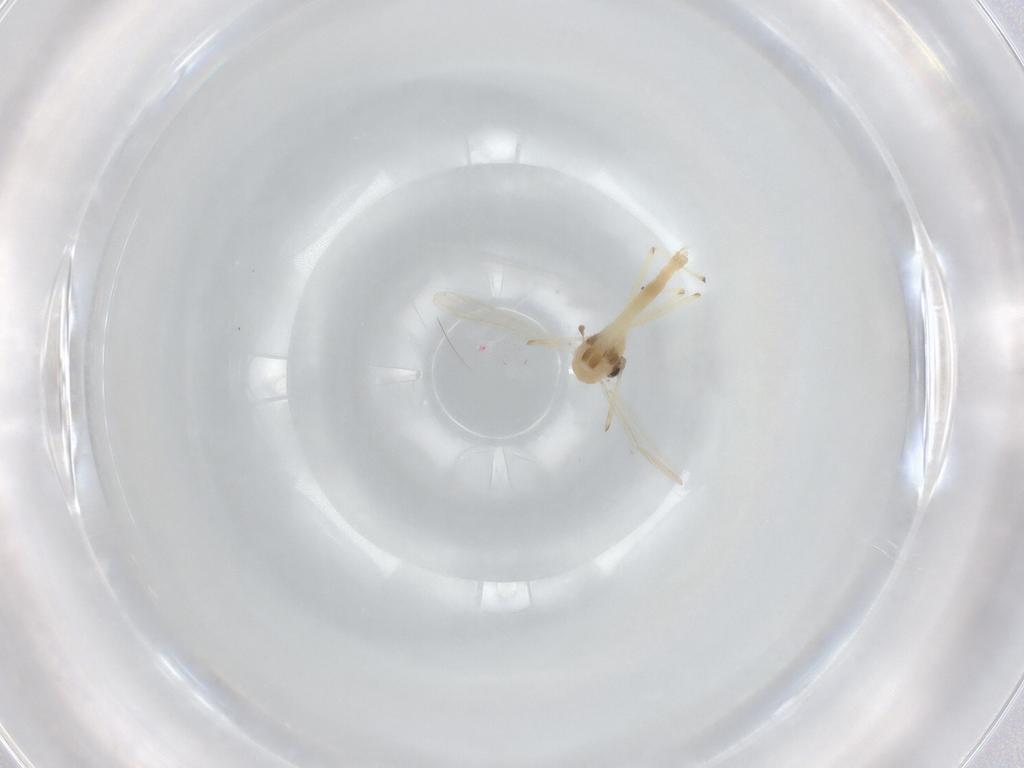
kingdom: Animalia
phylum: Arthropoda
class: Insecta
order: Diptera
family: Chironomidae
